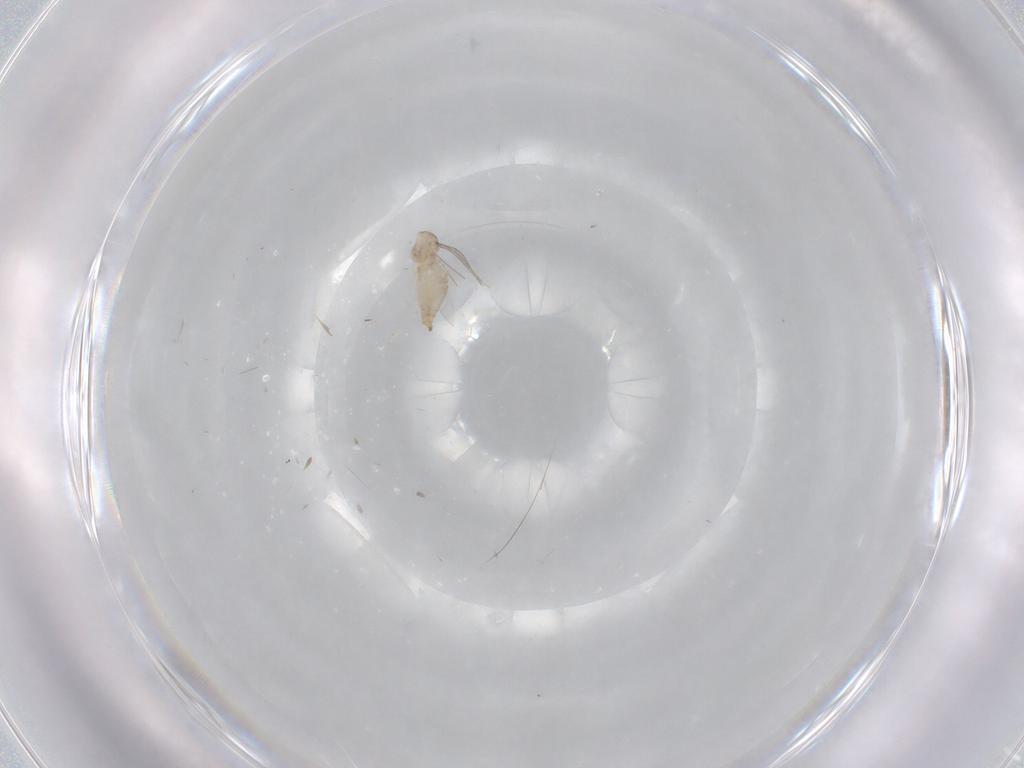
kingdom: Animalia
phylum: Arthropoda
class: Insecta
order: Diptera
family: Cecidomyiidae
